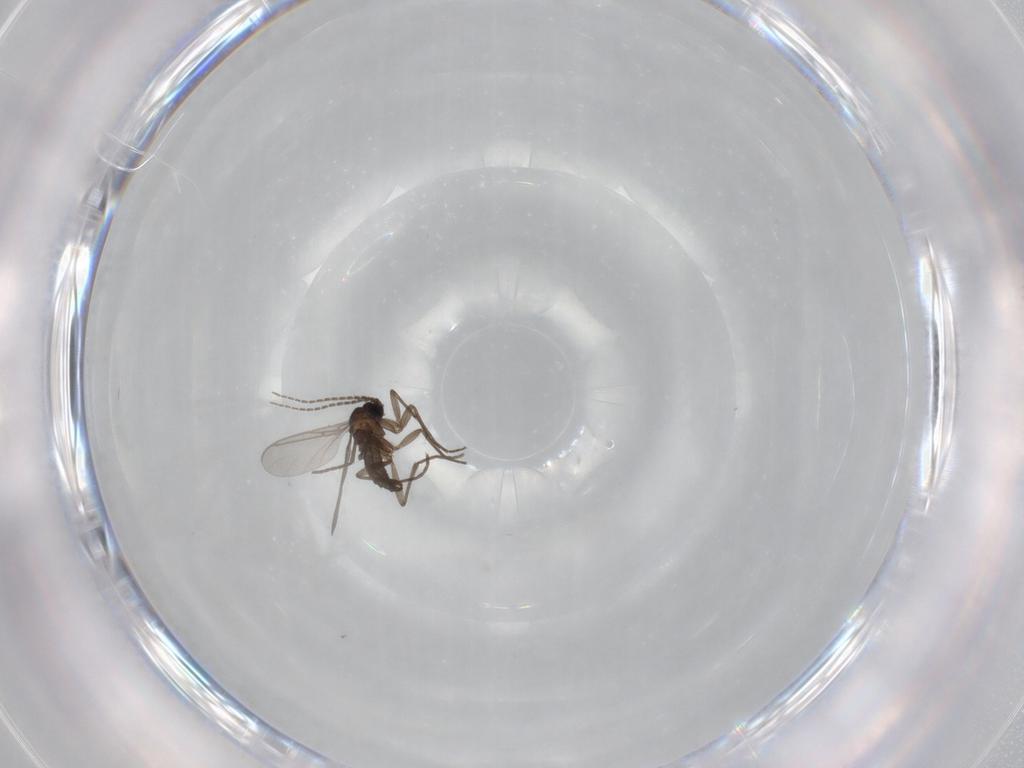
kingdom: Animalia
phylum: Arthropoda
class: Insecta
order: Diptera
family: Sciaridae
